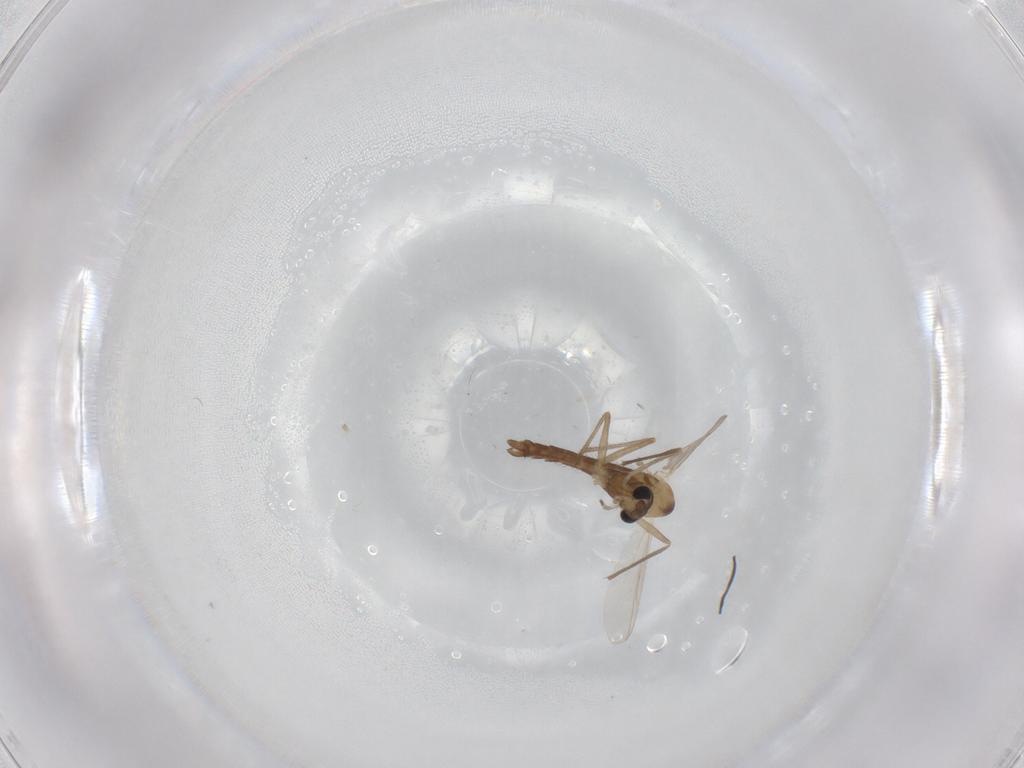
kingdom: Animalia
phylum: Arthropoda
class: Insecta
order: Diptera
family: Chironomidae
